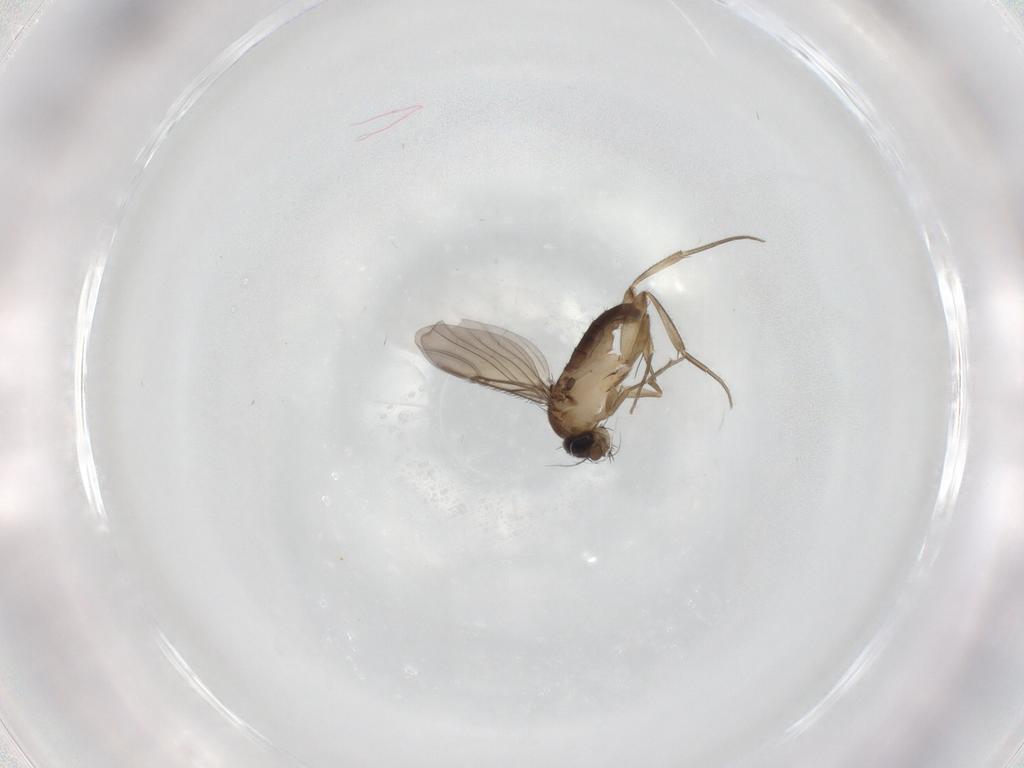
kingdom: Animalia
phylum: Arthropoda
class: Insecta
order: Diptera
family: Phoridae
